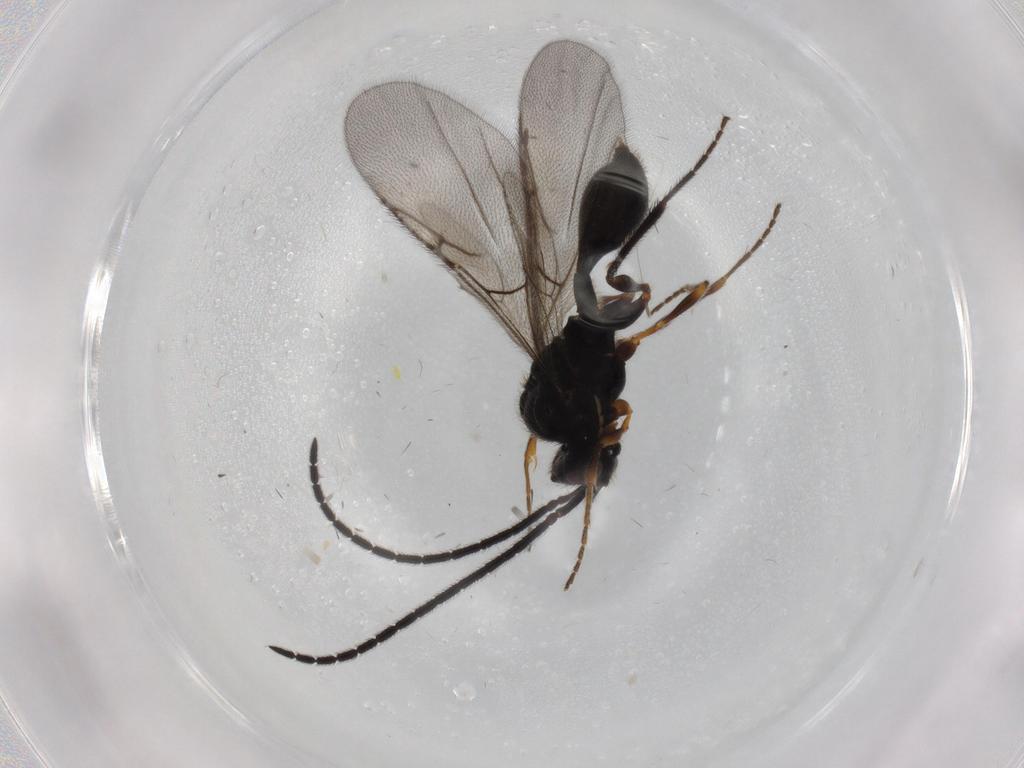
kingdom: Animalia
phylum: Arthropoda
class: Insecta
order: Hymenoptera
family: Diapriidae
